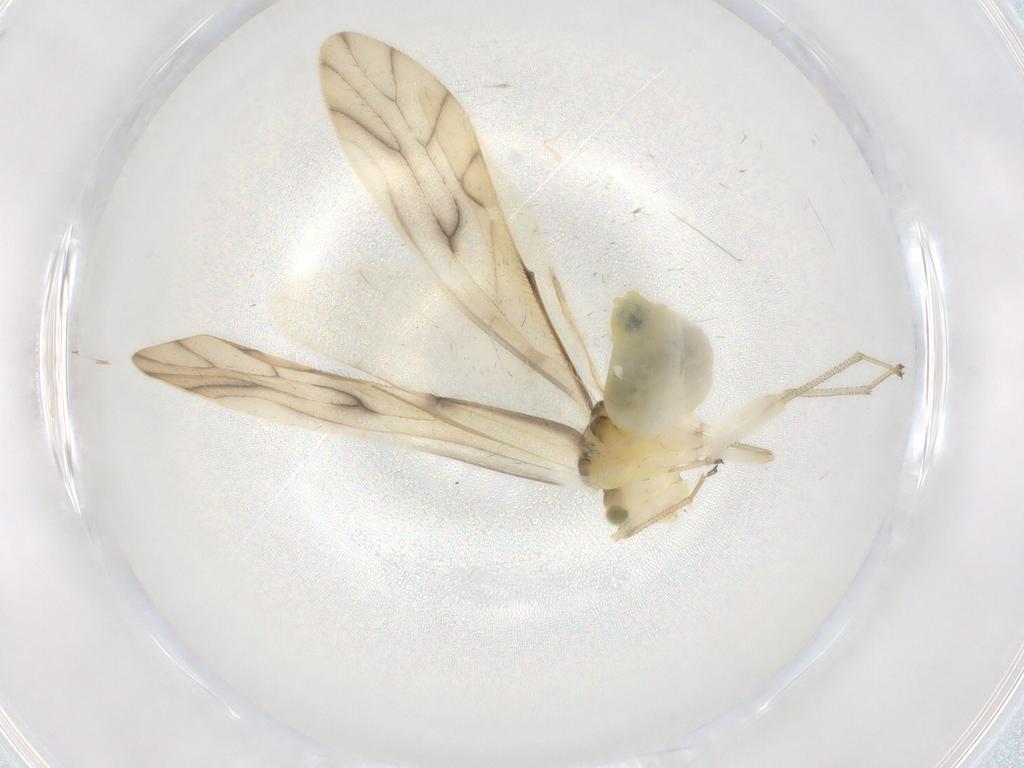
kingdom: Animalia
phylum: Arthropoda
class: Insecta
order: Psocodea
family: Caeciliusidae
